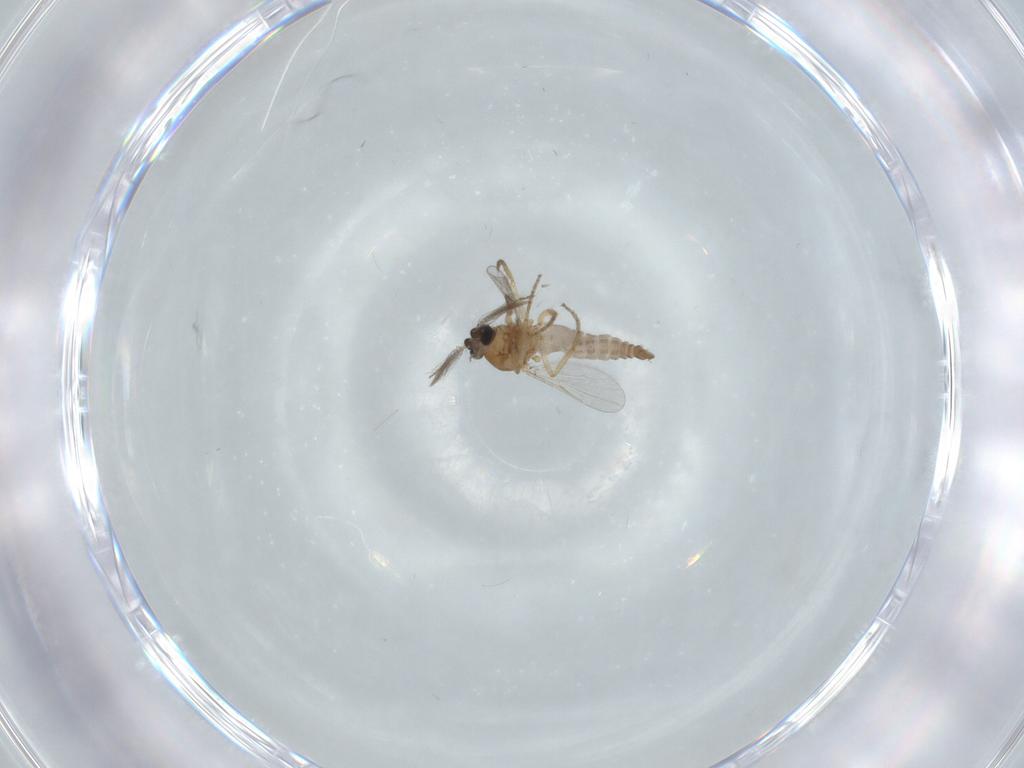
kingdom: Animalia
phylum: Arthropoda
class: Insecta
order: Diptera
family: Ceratopogonidae
